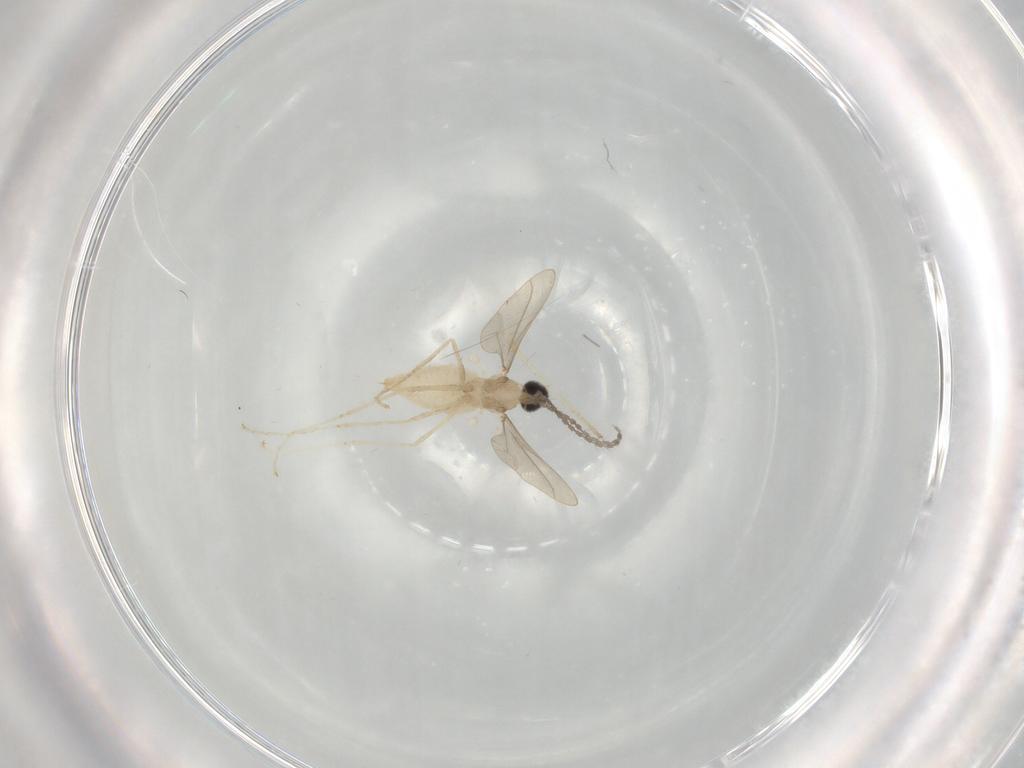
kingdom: Animalia
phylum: Arthropoda
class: Insecta
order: Diptera
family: Cecidomyiidae
